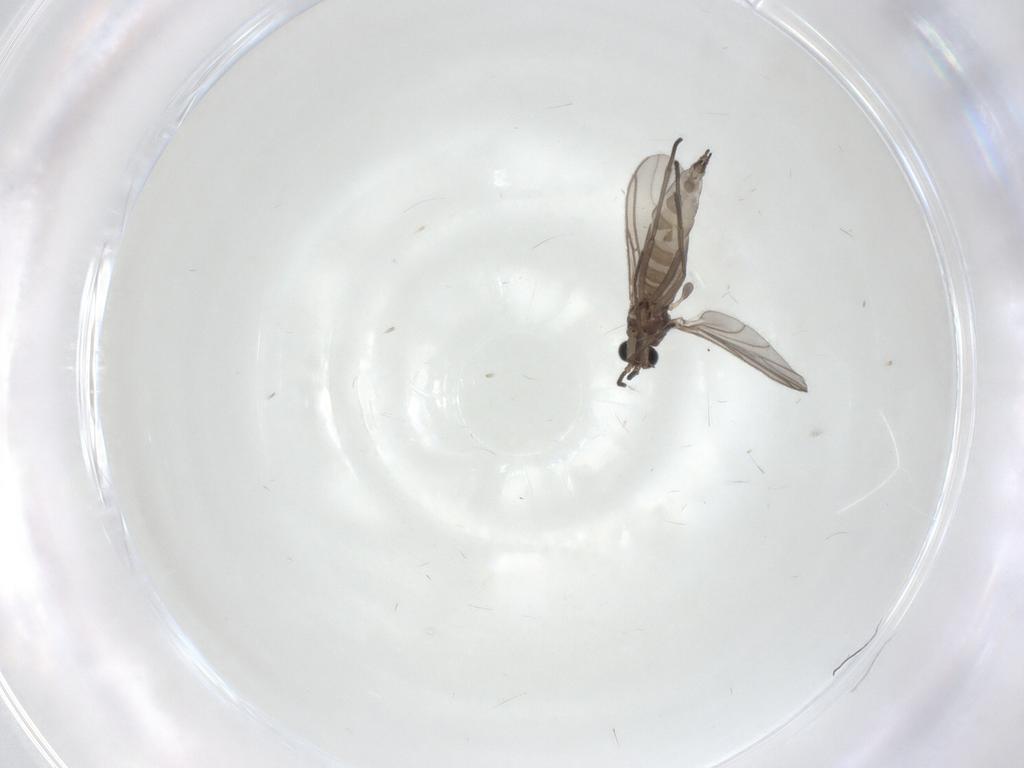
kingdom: Animalia
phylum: Arthropoda
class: Insecta
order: Diptera
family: Sciaridae
